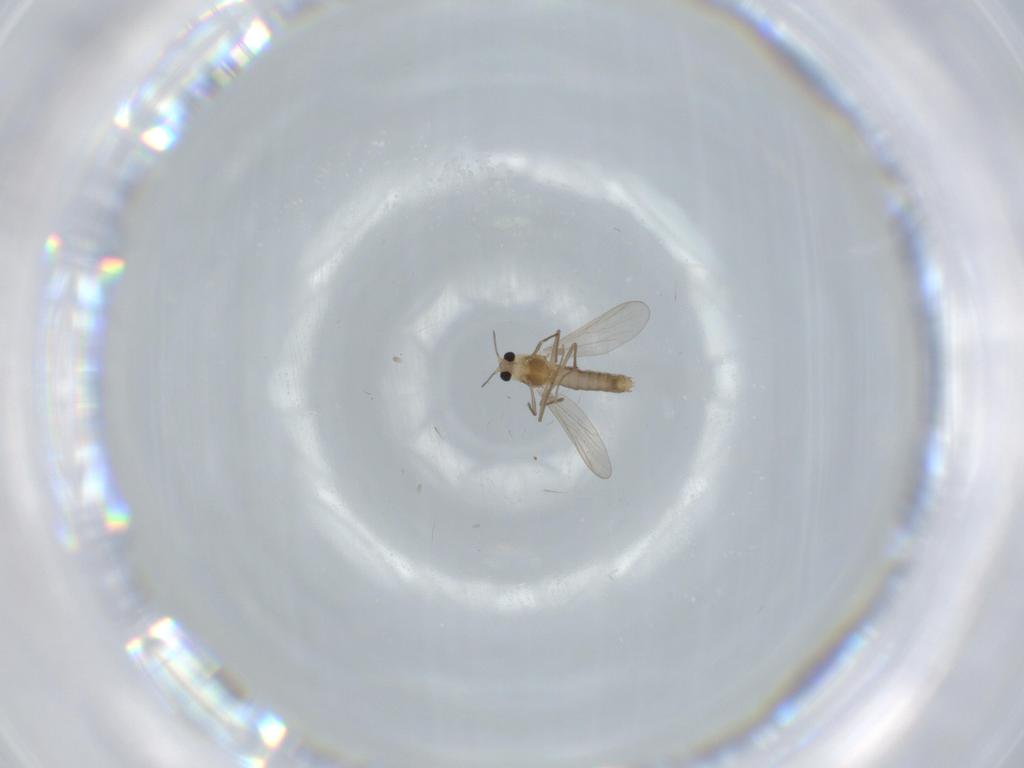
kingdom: Animalia
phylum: Arthropoda
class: Insecta
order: Diptera
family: Chironomidae
